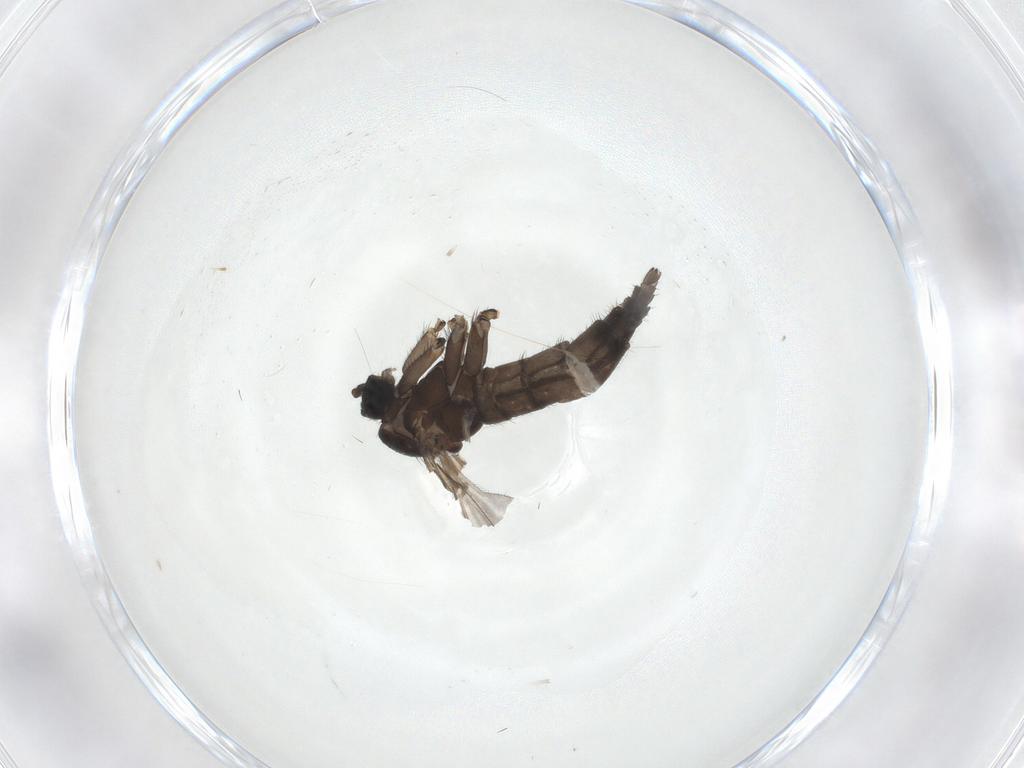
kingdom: Animalia
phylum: Arthropoda
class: Insecta
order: Diptera
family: Sciaridae
